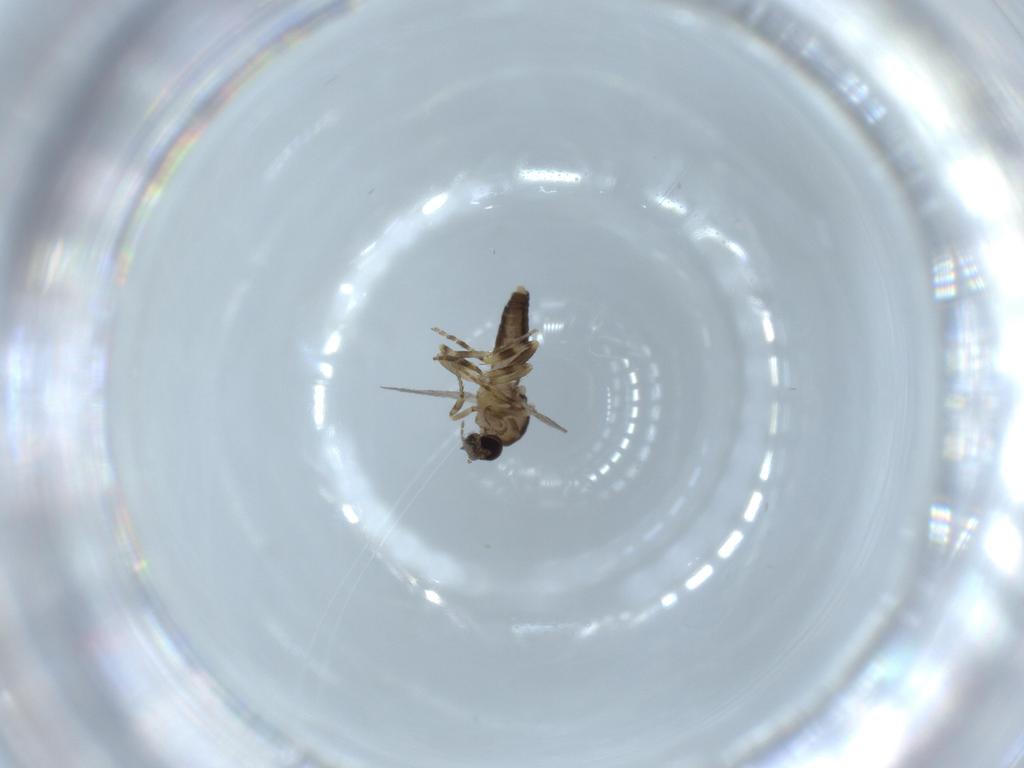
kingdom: Animalia
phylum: Arthropoda
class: Insecta
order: Diptera
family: Ceratopogonidae
